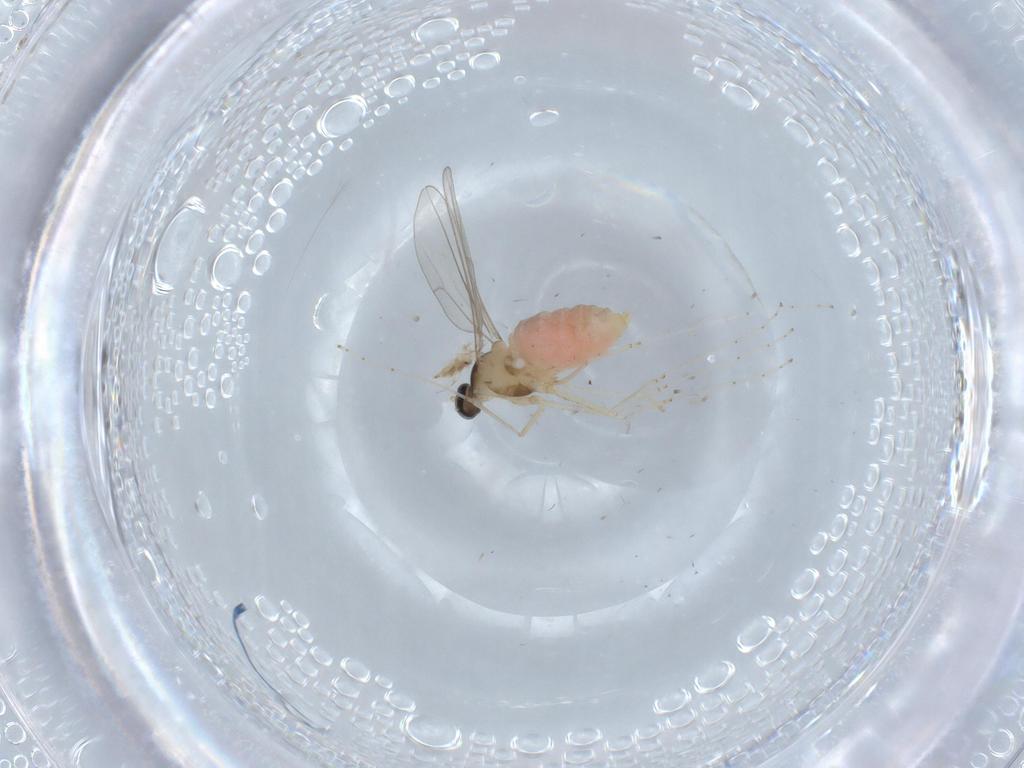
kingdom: Animalia
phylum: Arthropoda
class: Insecta
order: Diptera
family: Cecidomyiidae
